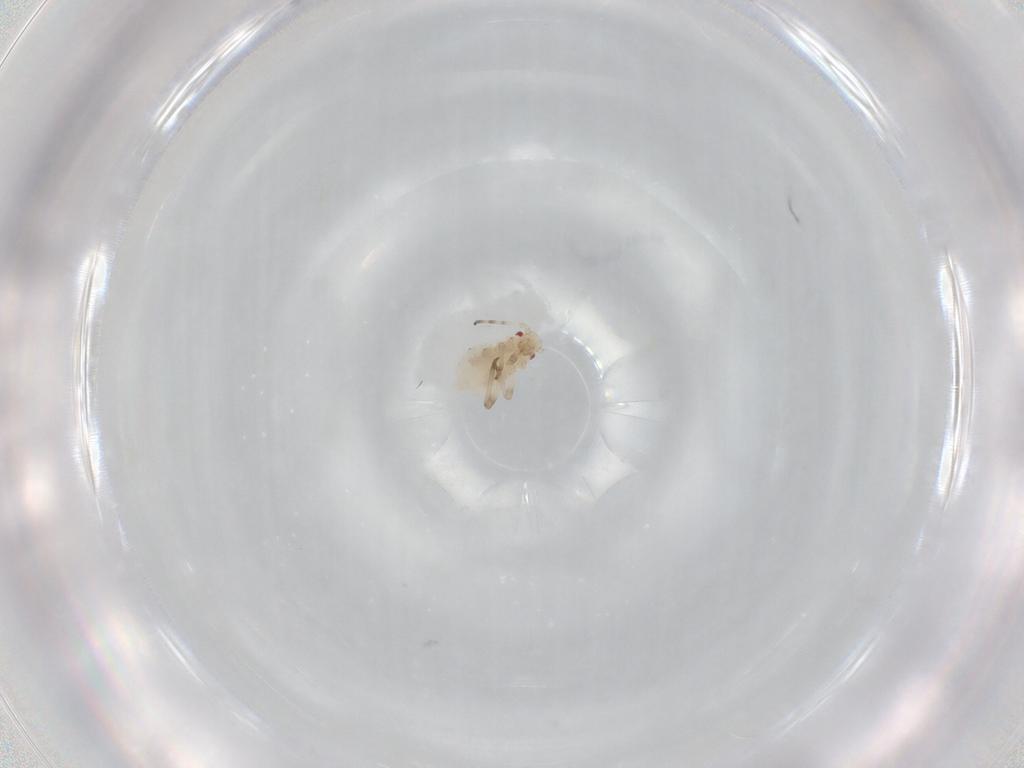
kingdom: Animalia
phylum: Arthropoda
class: Insecta
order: Hemiptera
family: Aphididae
